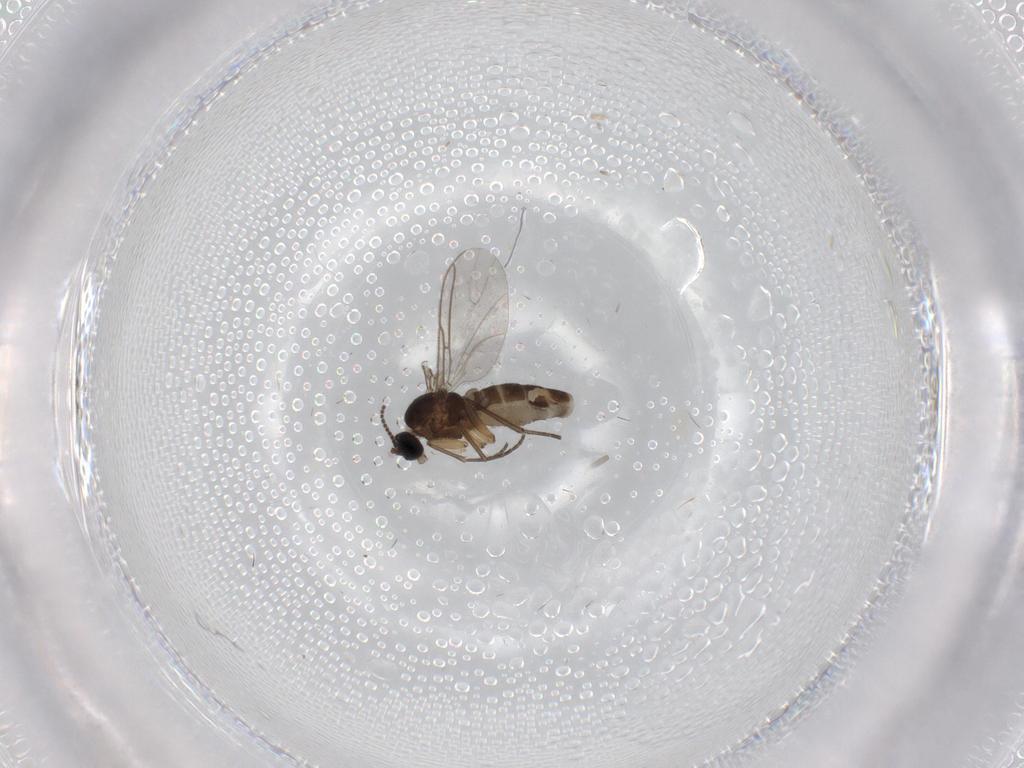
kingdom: Animalia
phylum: Arthropoda
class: Insecta
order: Diptera
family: Sciaridae
